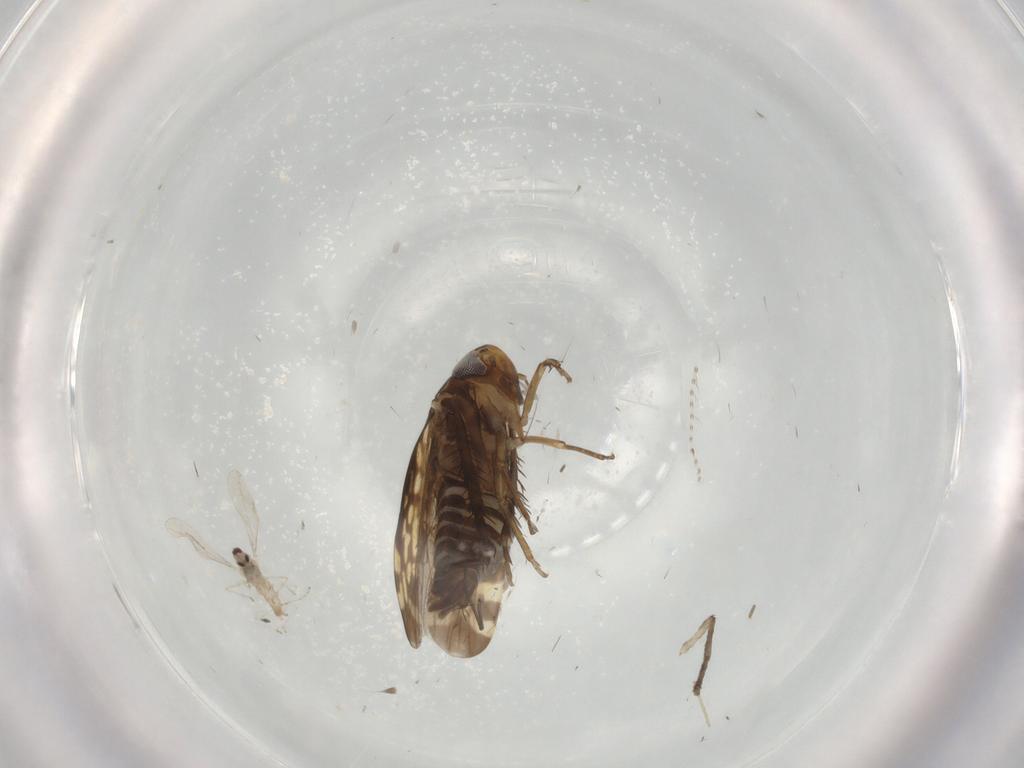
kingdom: Animalia
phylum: Arthropoda
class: Insecta
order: Hemiptera
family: Cicadellidae
